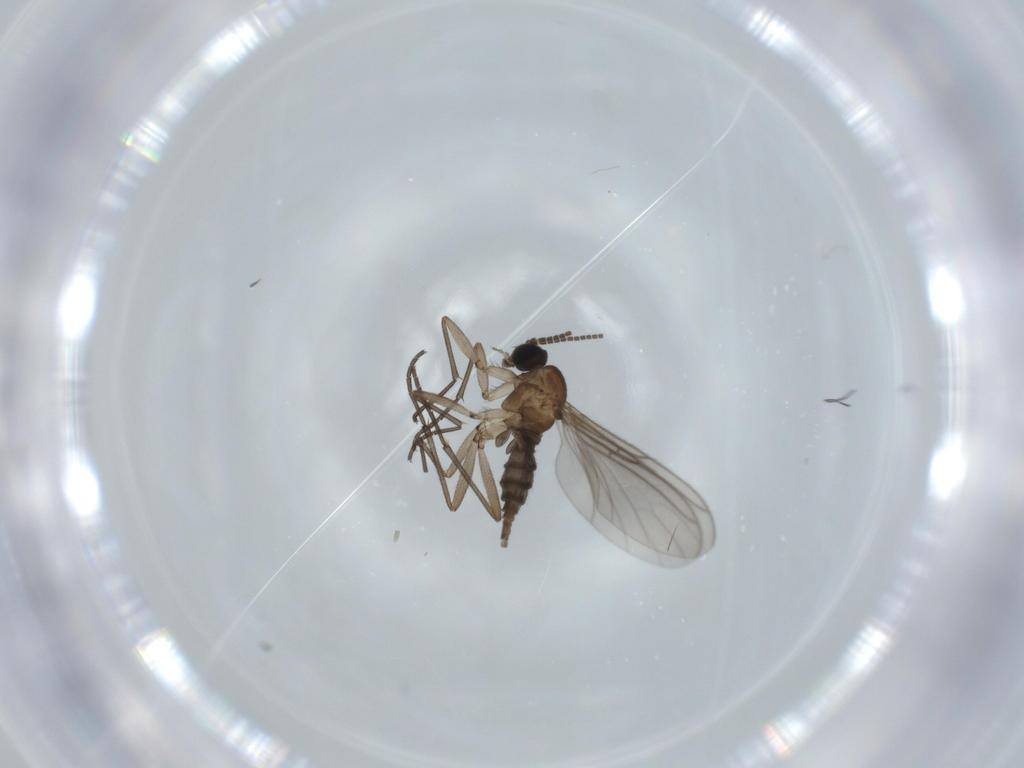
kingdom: Animalia
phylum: Arthropoda
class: Insecta
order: Diptera
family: Sciaridae
